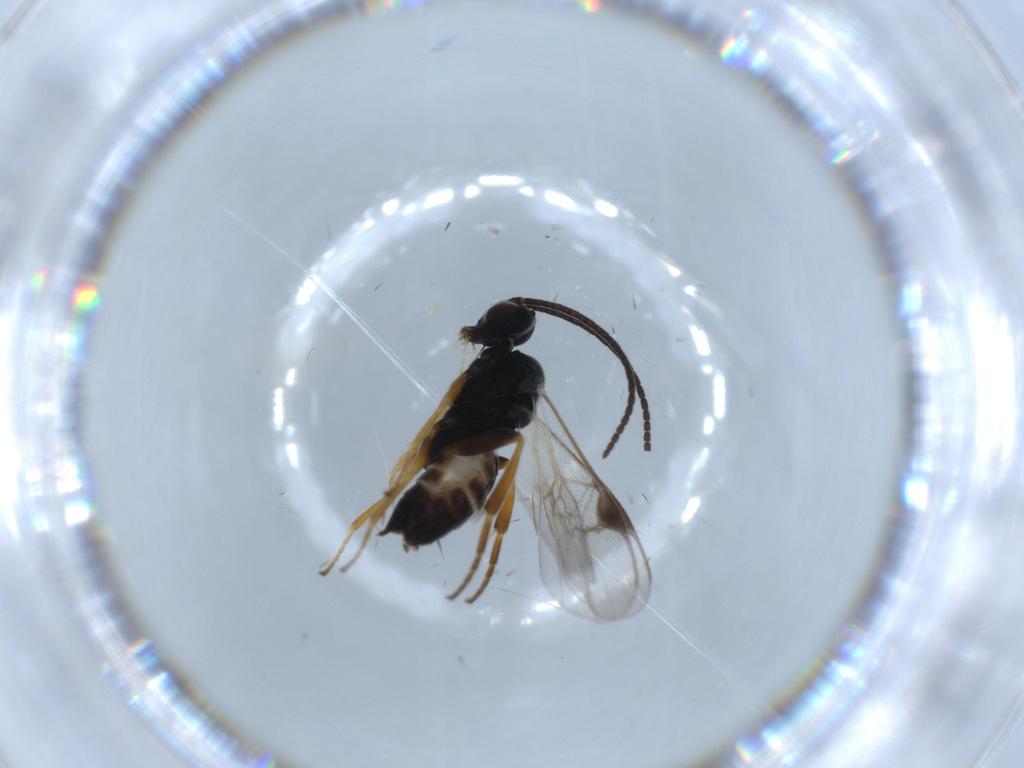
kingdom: Animalia
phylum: Arthropoda
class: Insecta
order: Hymenoptera
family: Braconidae
